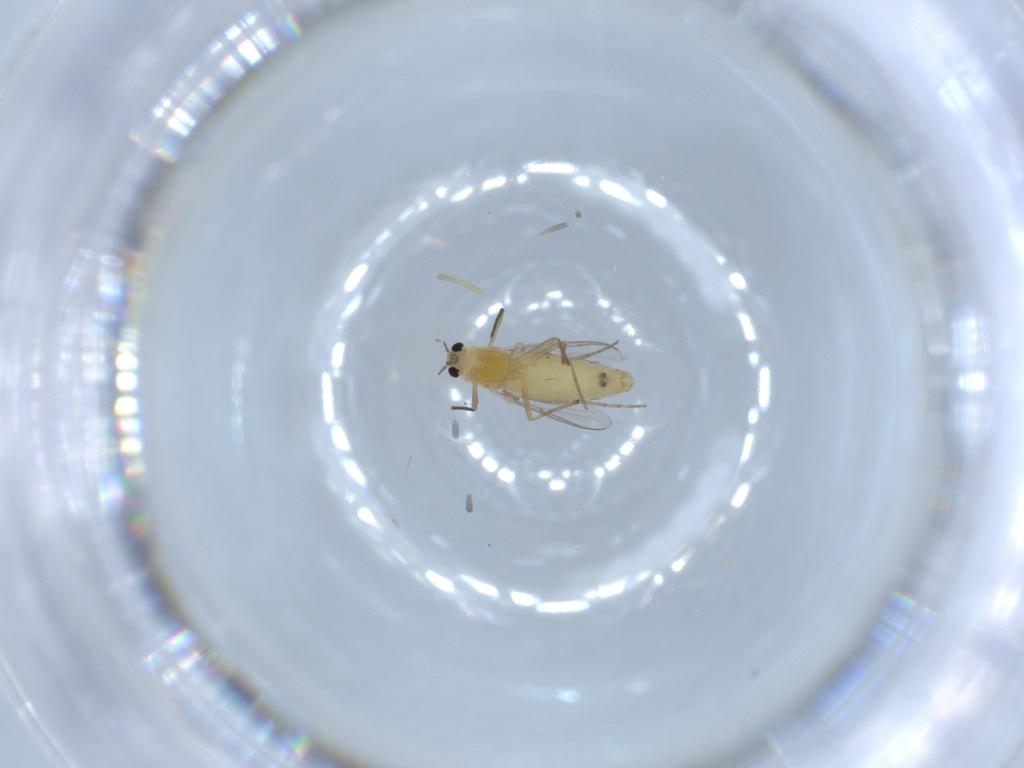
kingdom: Animalia
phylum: Arthropoda
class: Insecta
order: Diptera
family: Chironomidae
